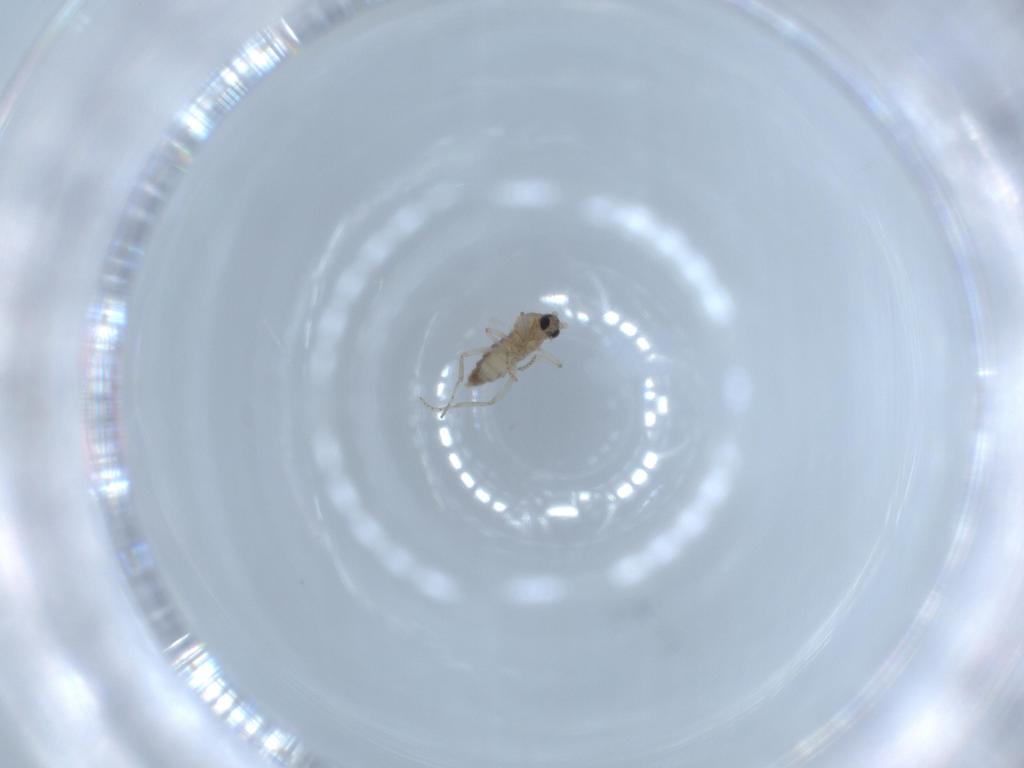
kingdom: Animalia
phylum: Arthropoda
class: Insecta
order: Diptera
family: Cecidomyiidae
